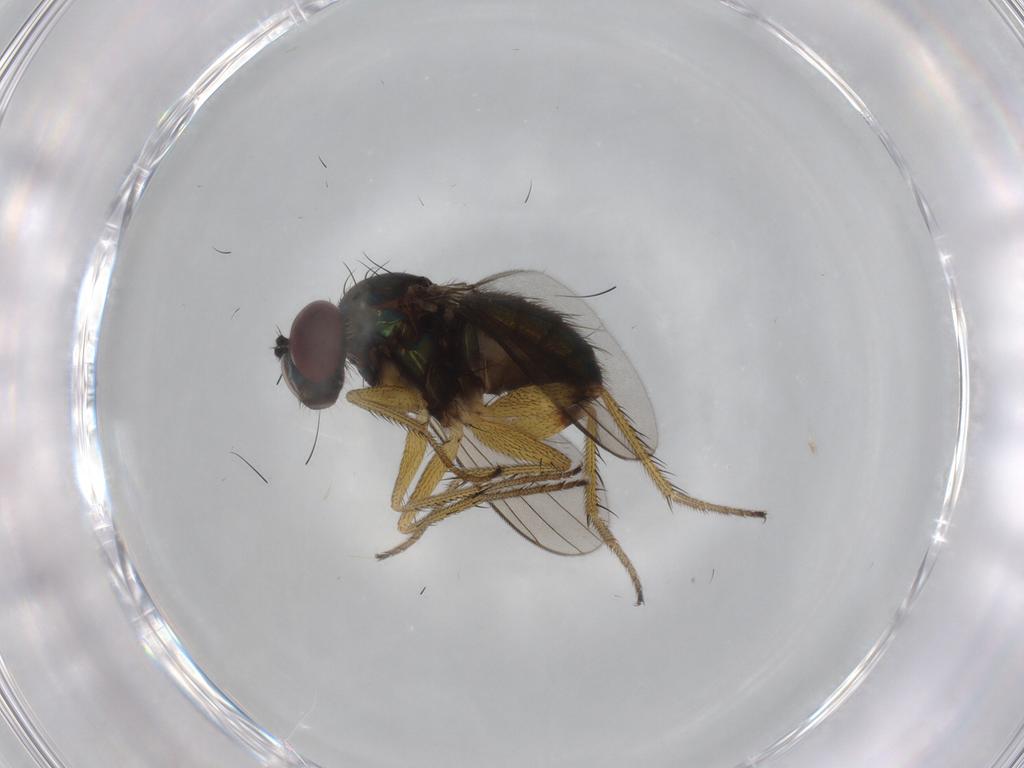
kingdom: Animalia
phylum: Arthropoda
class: Insecta
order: Diptera
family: Dolichopodidae
